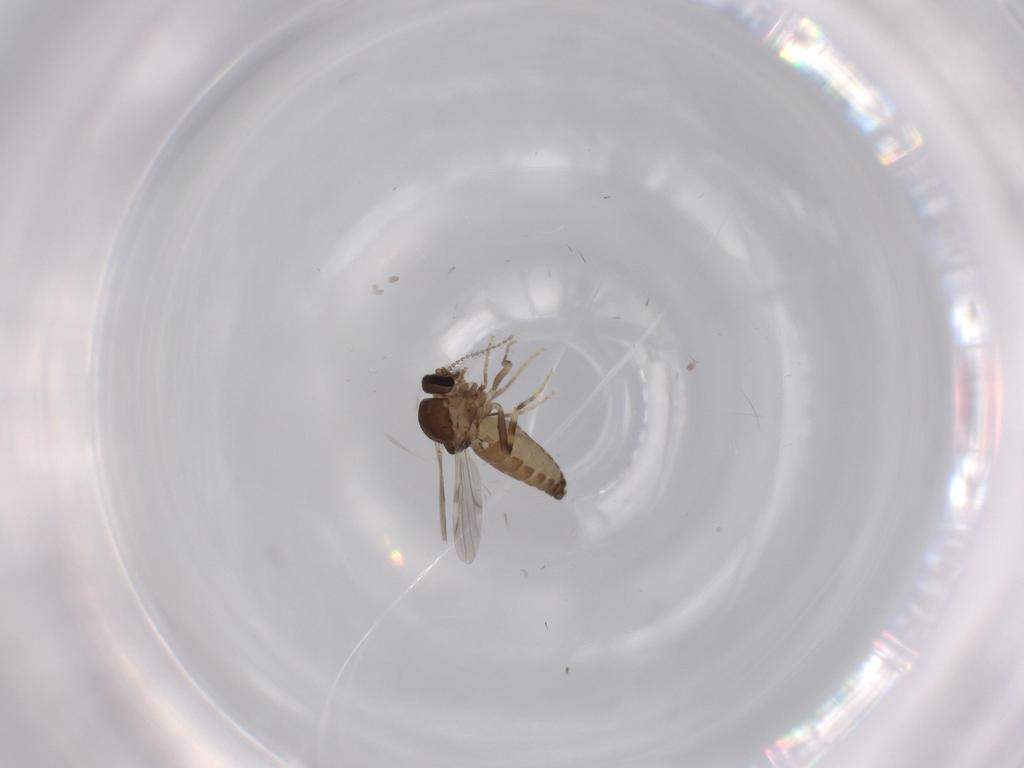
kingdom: Animalia
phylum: Arthropoda
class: Insecta
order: Diptera
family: Ceratopogonidae
